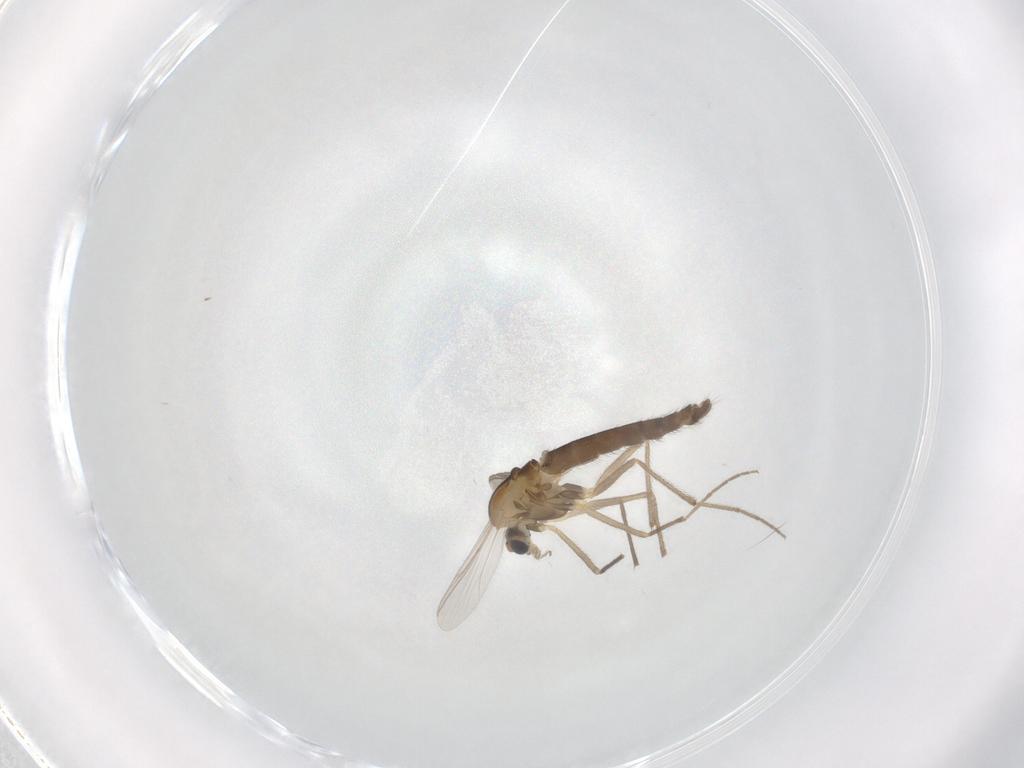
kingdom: Animalia
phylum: Arthropoda
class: Insecta
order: Diptera
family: Chironomidae
